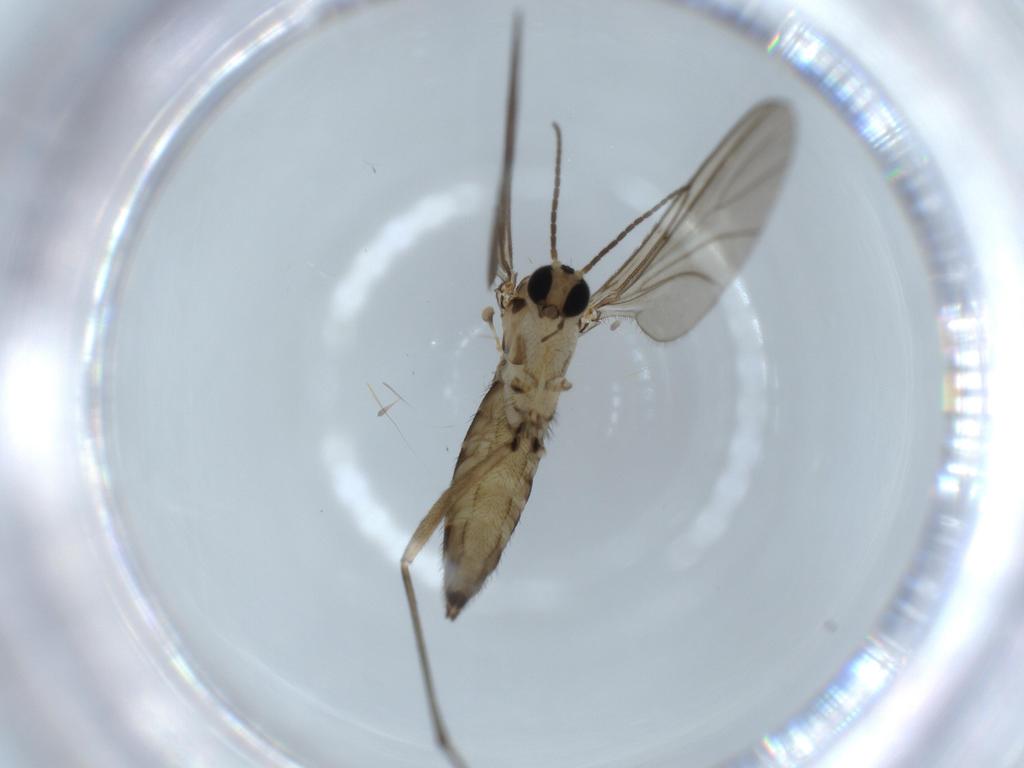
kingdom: Animalia
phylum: Arthropoda
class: Insecta
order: Diptera
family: Sciaridae
